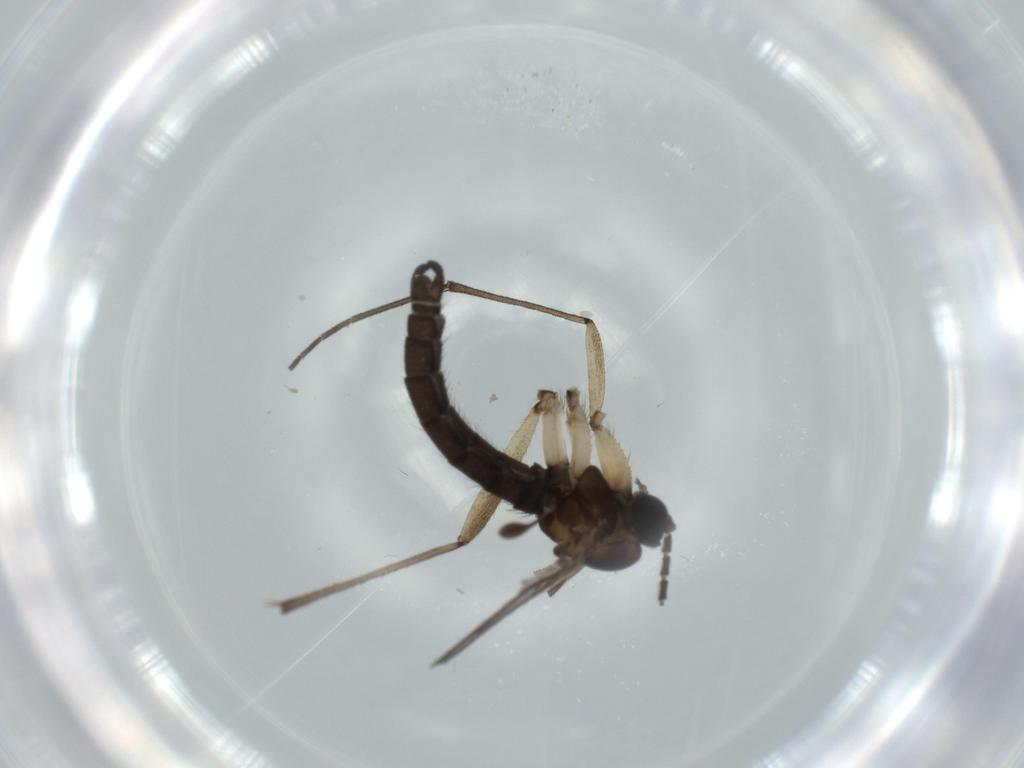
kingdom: Animalia
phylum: Arthropoda
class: Insecta
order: Diptera
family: Sciaridae
